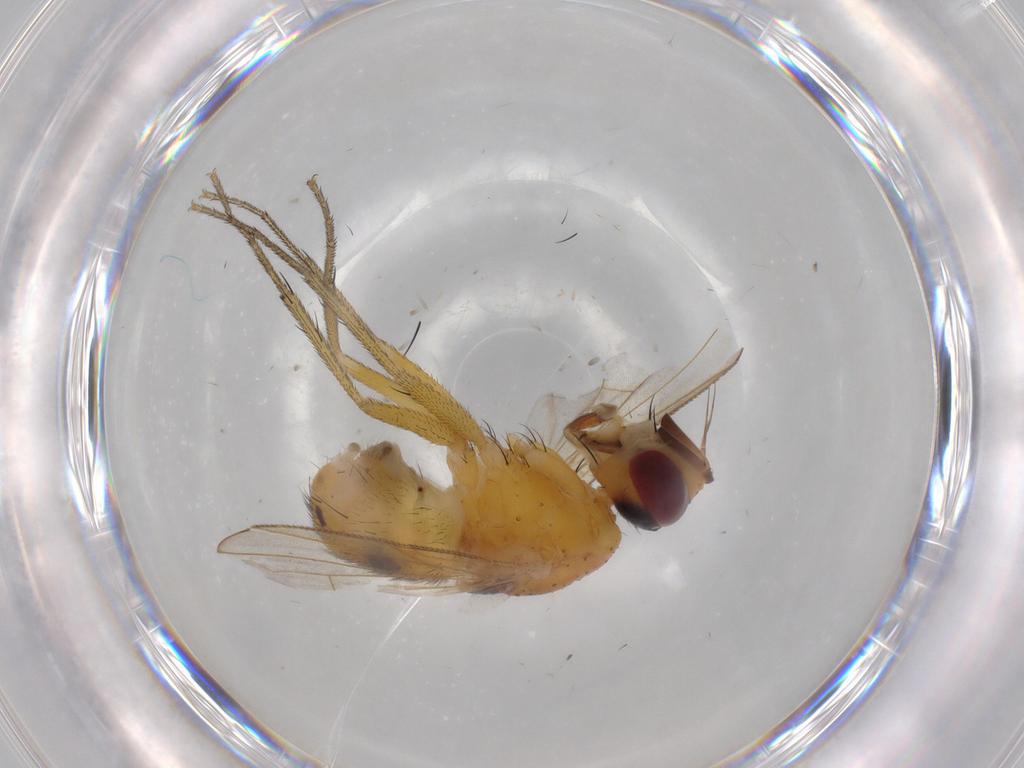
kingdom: Animalia
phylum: Arthropoda
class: Insecta
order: Diptera
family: Muscidae
